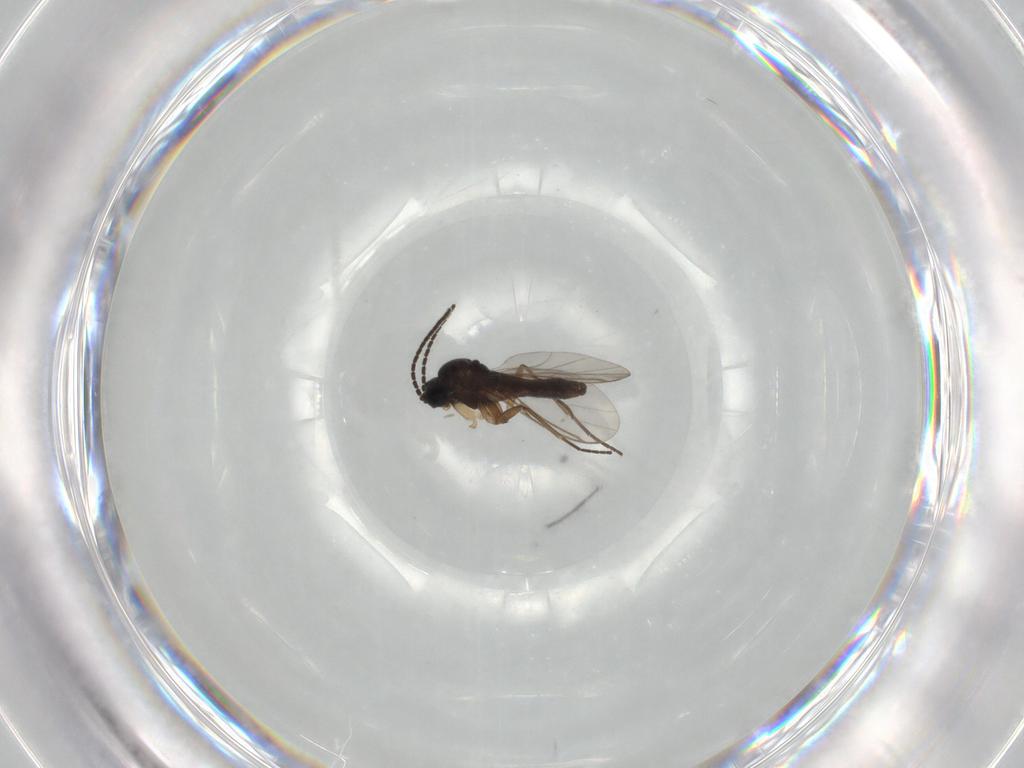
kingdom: Animalia
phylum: Arthropoda
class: Insecta
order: Diptera
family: Sciaridae
